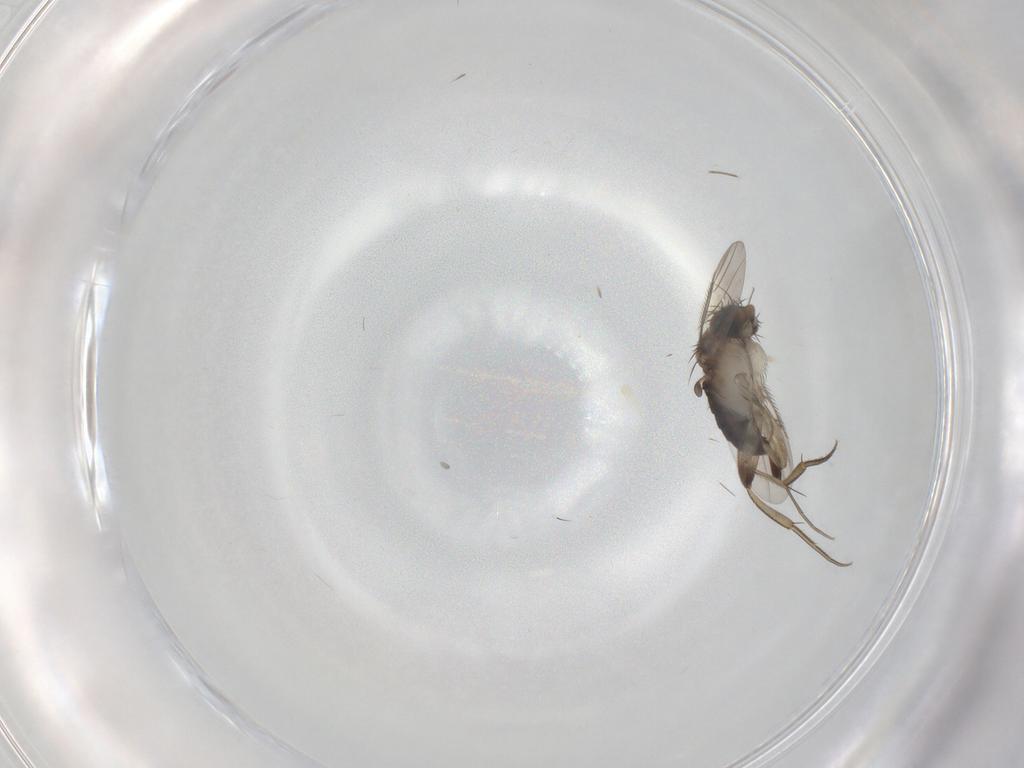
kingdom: Animalia
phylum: Arthropoda
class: Insecta
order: Diptera
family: Phoridae
